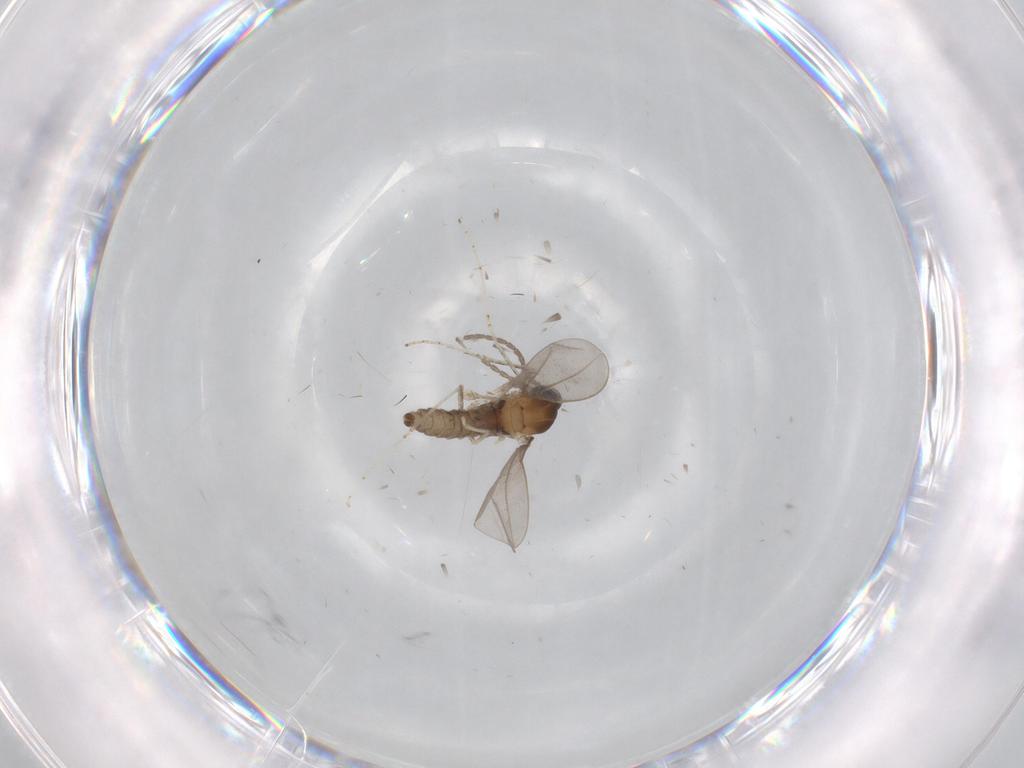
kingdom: Animalia
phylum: Arthropoda
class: Insecta
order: Diptera
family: Cecidomyiidae
